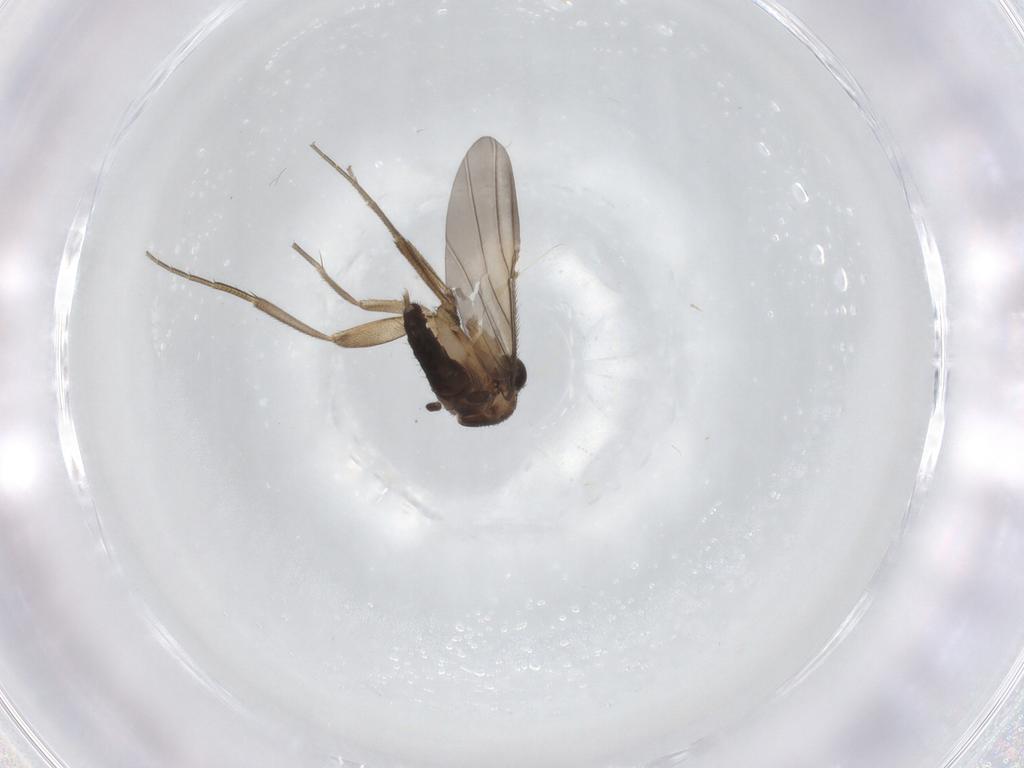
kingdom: Animalia
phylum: Arthropoda
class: Insecta
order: Diptera
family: Phoridae
